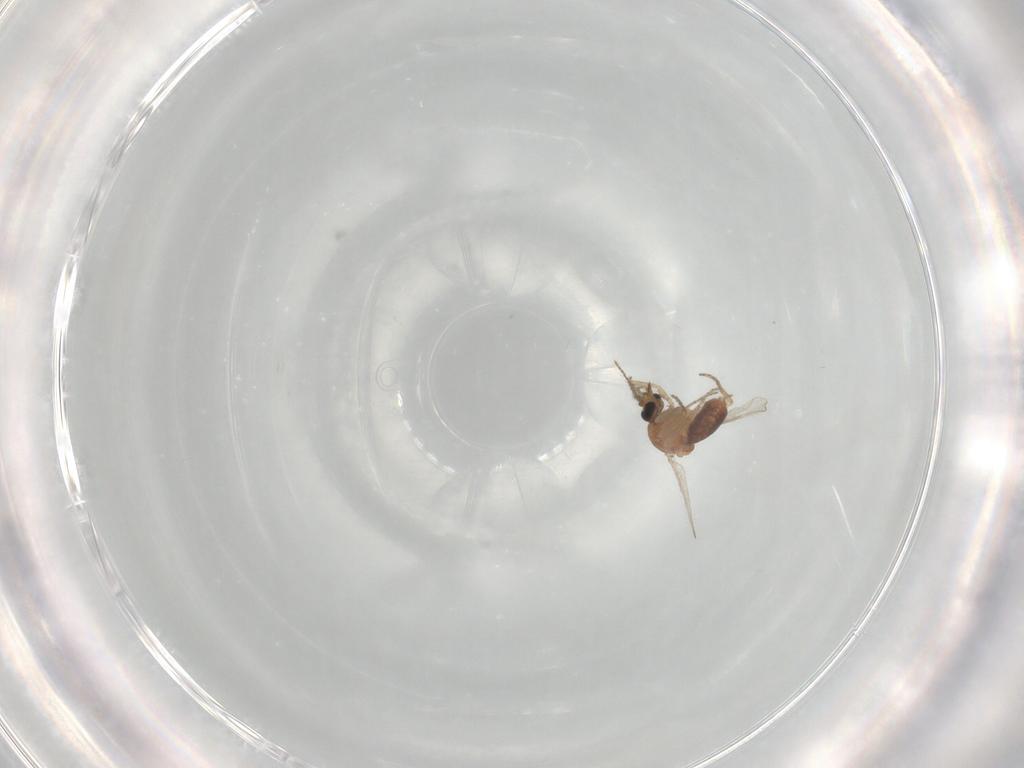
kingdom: Animalia
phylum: Arthropoda
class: Insecta
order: Diptera
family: Ceratopogonidae
